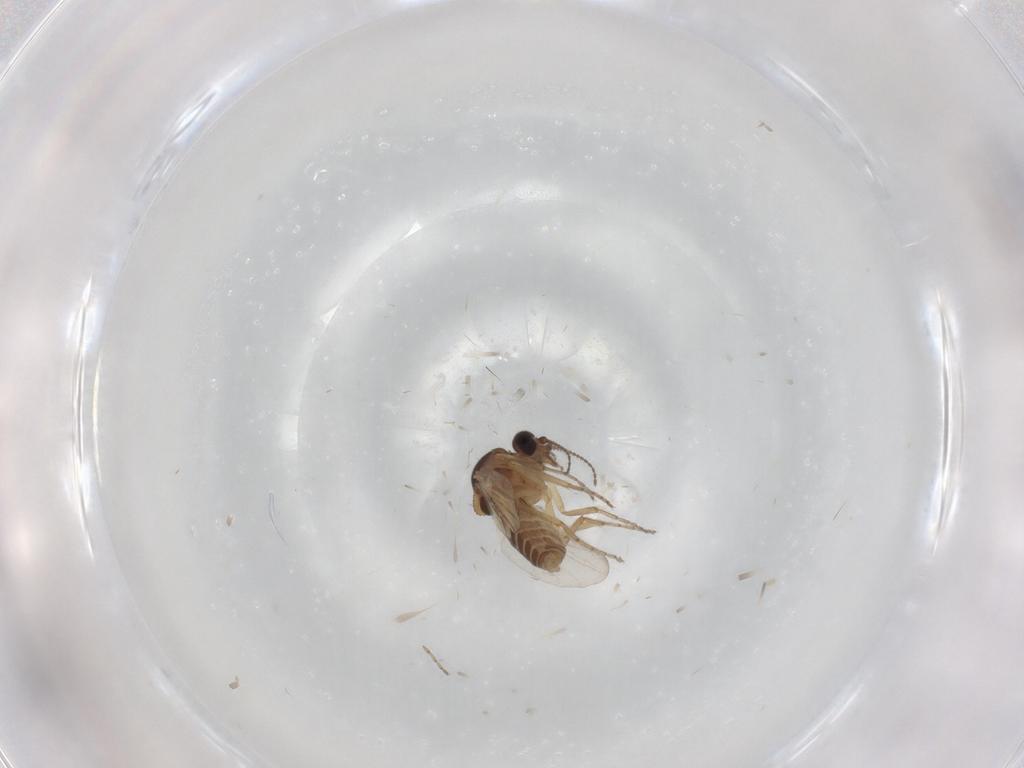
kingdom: Animalia
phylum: Arthropoda
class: Insecta
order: Diptera
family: Ceratopogonidae
